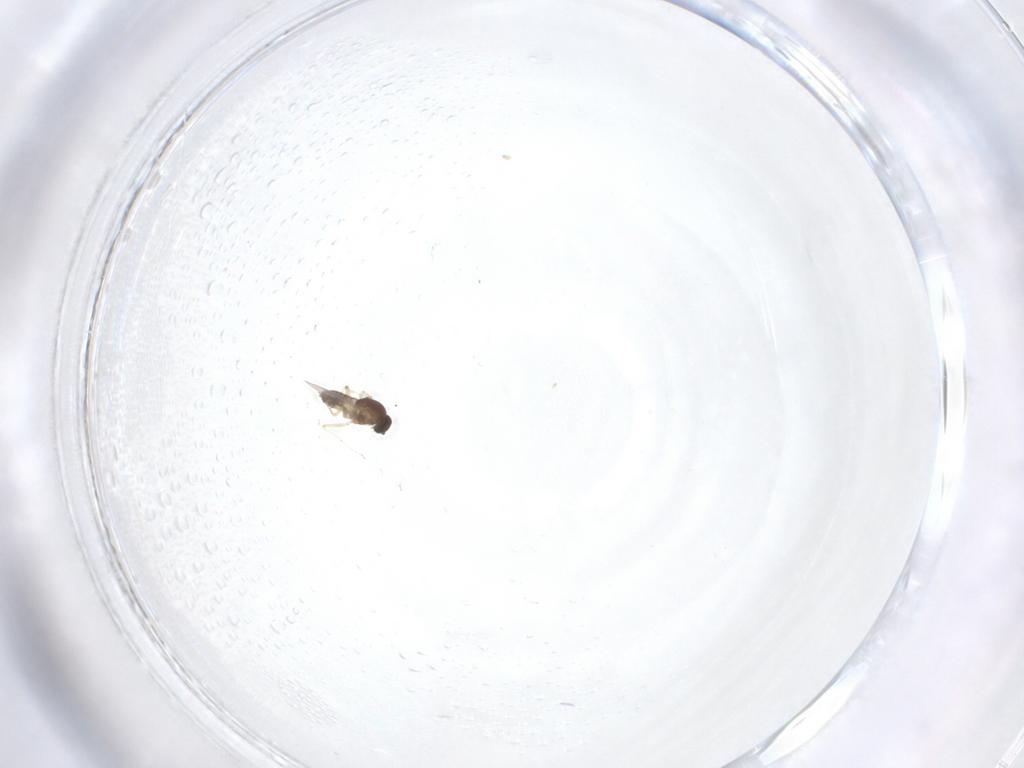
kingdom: Animalia
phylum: Arthropoda
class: Insecta
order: Diptera
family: Ceratopogonidae
